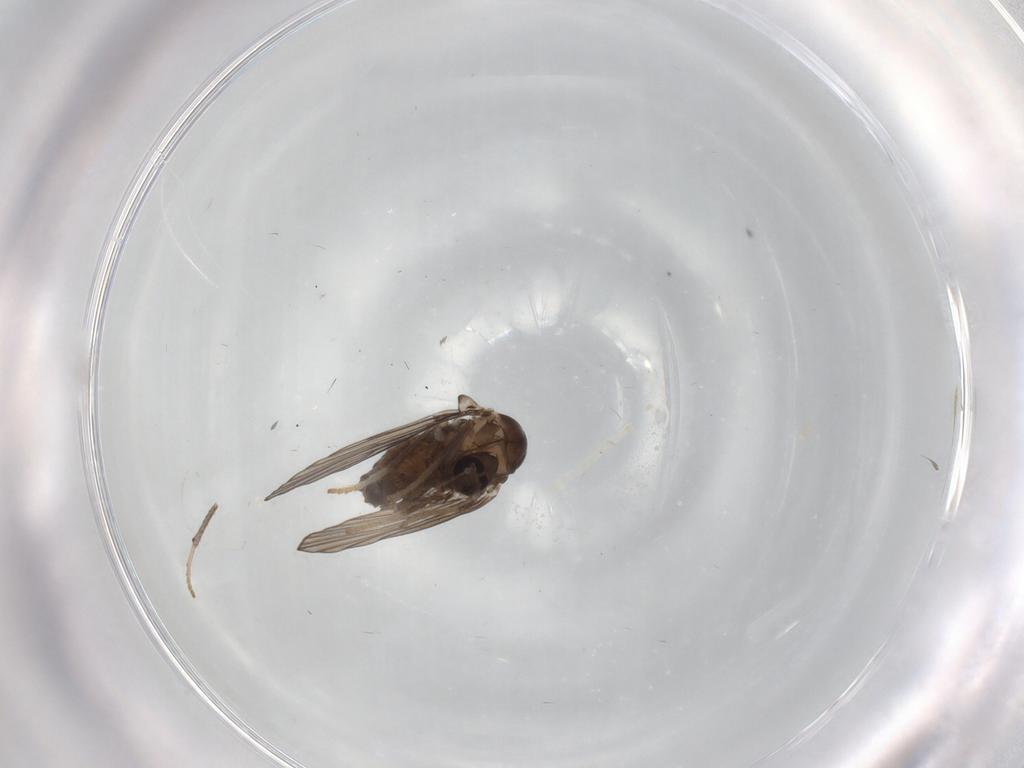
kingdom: Animalia
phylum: Arthropoda
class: Insecta
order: Diptera
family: Psychodidae
